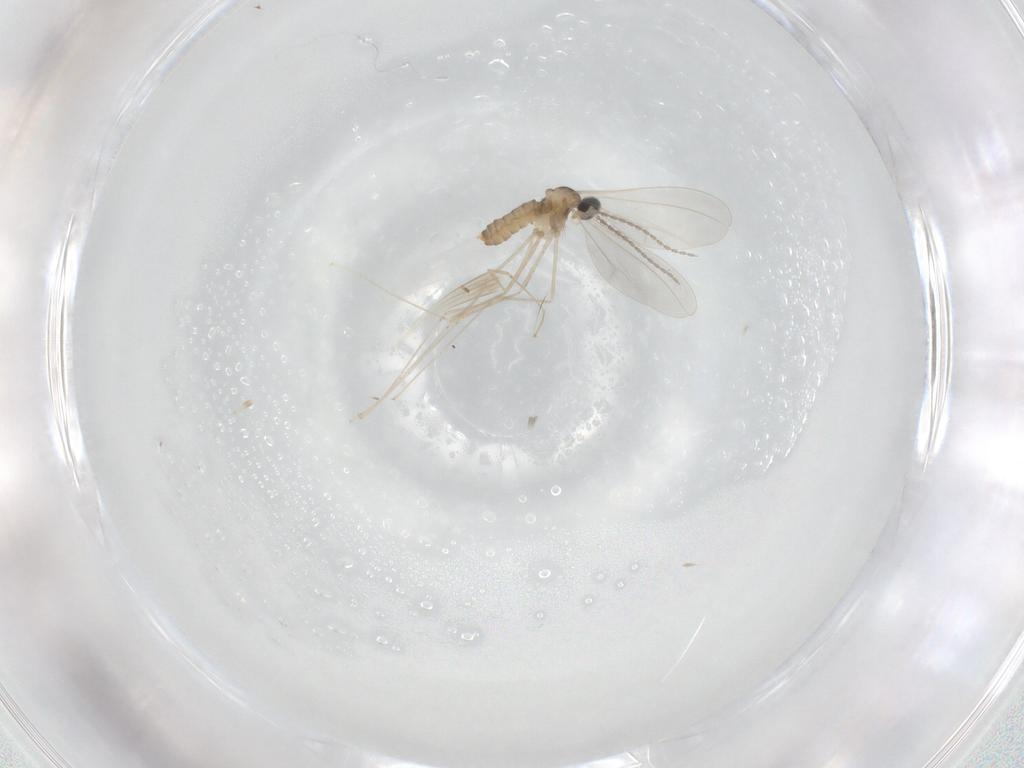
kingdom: Animalia
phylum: Arthropoda
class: Insecta
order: Diptera
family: Cecidomyiidae
